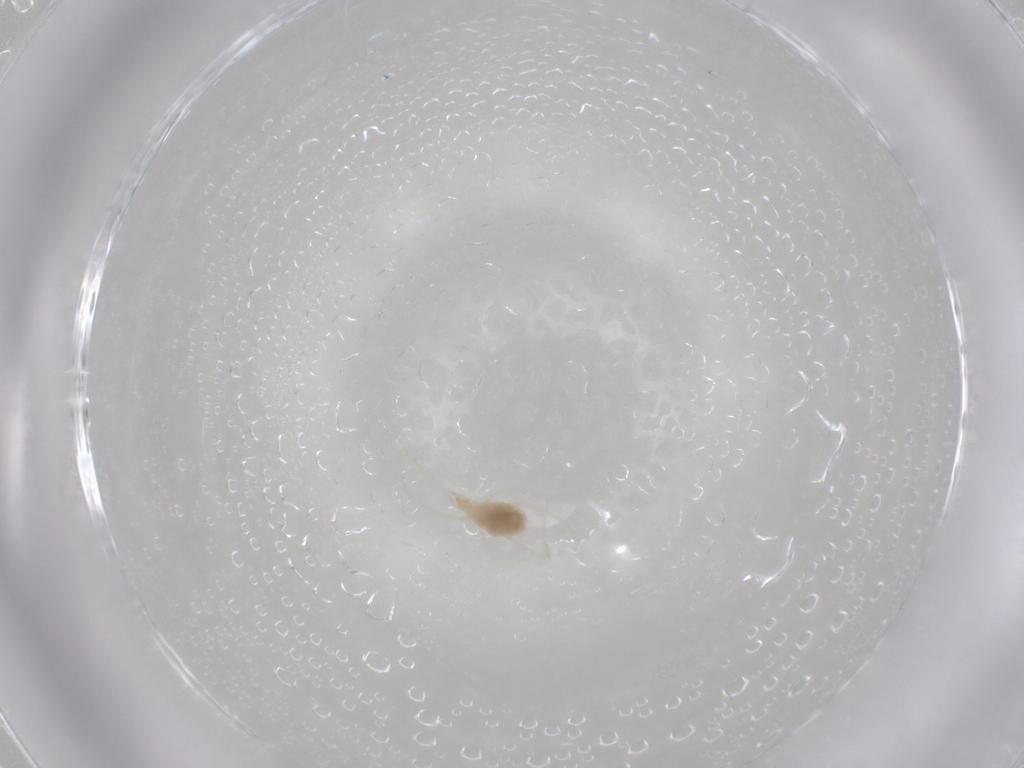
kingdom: Animalia
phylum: Arthropoda
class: Arachnida
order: Trombidiformes
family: Tetranychidae
